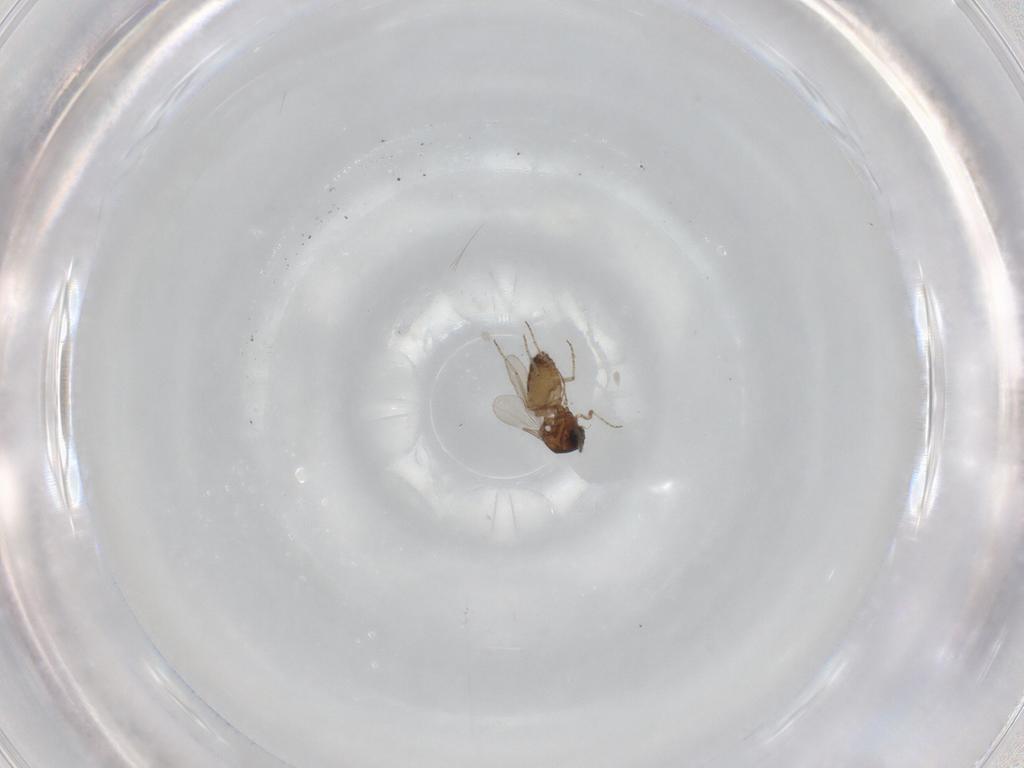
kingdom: Animalia
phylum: Arthropoda
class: Insecta
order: Diptera
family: Ceratopogonidae
